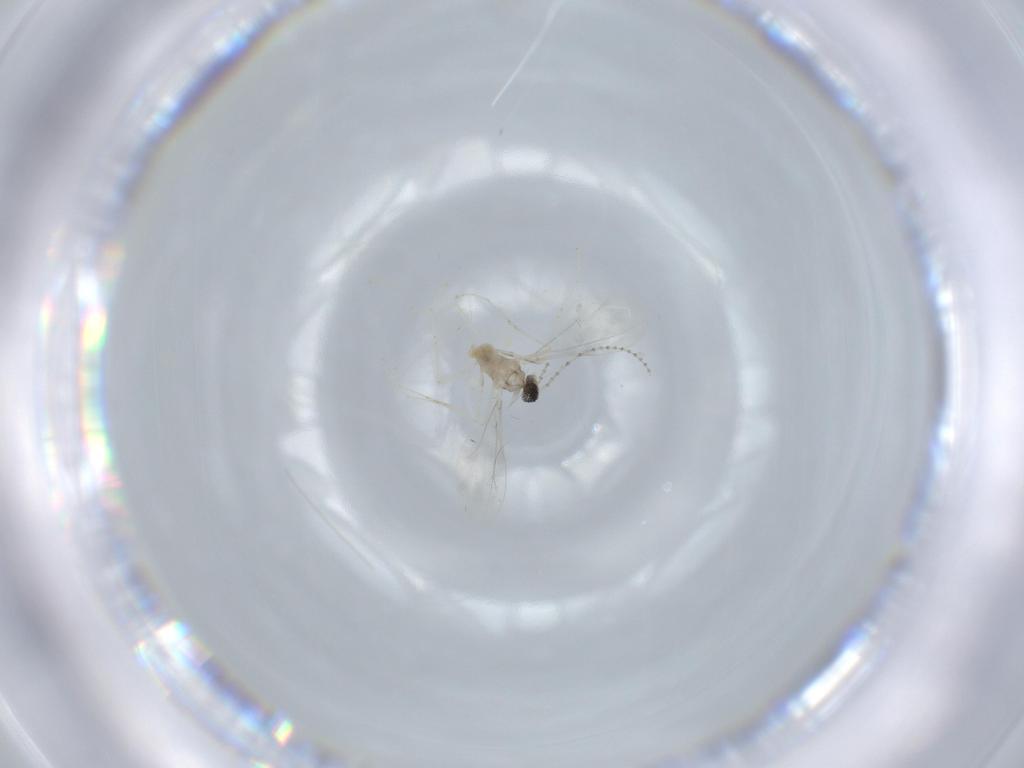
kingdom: Animalia
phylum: Arthropoda
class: Insecta
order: Diptera
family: Cecidomyiidae
